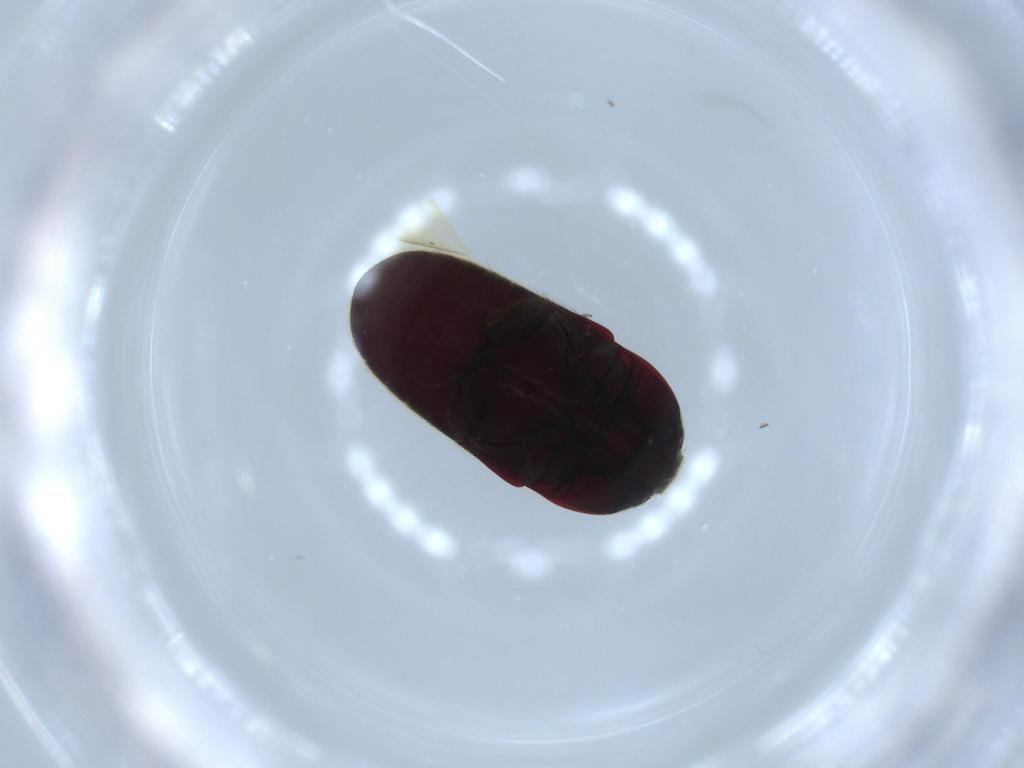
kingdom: Animalia
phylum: Arthropoda
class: Insecta
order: Coleoptera
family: Throscidae
